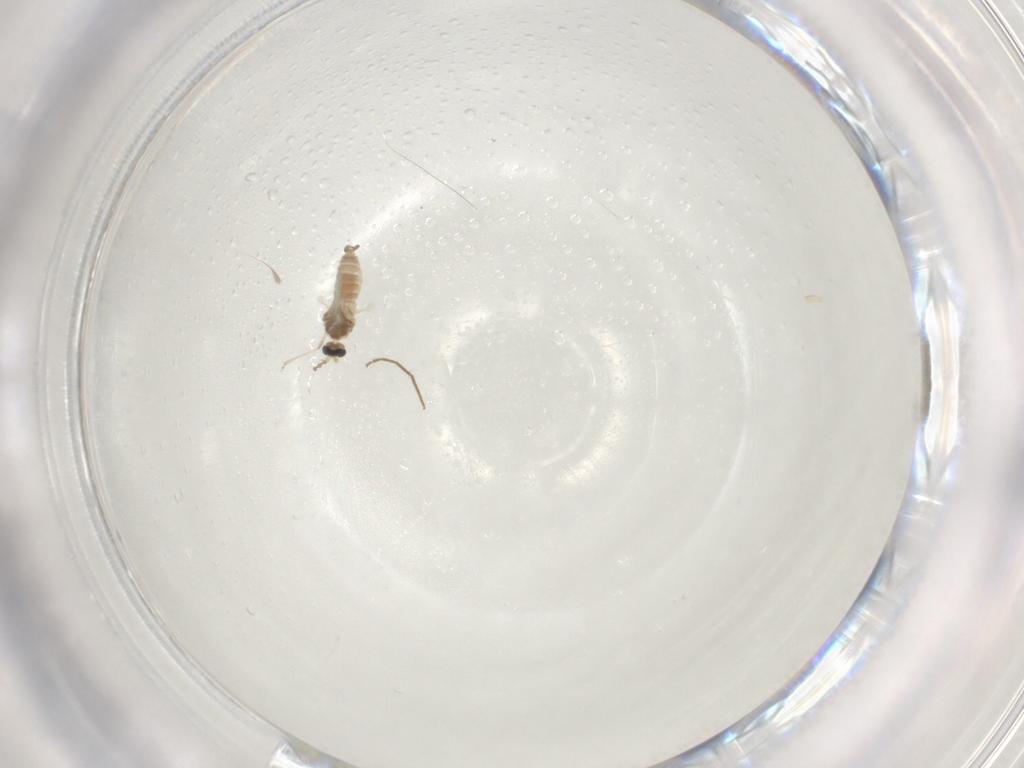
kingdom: Animalia
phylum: Arthropoda
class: Insecta
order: Diptera
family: Cecidomyiidae
